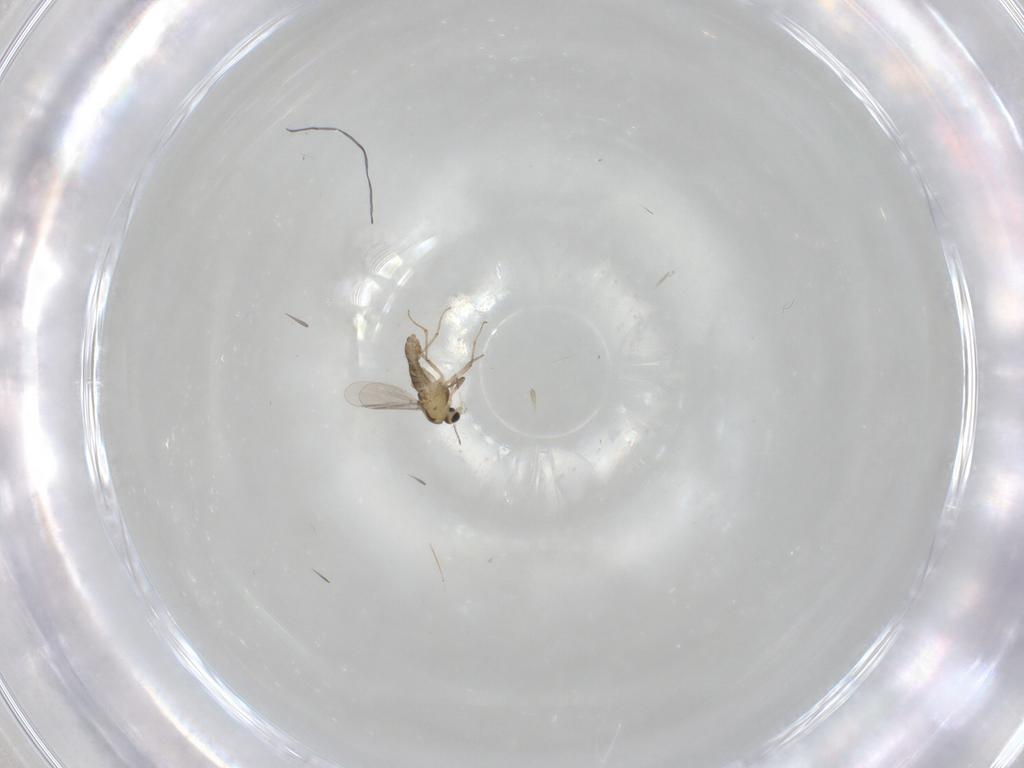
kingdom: Animalia
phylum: Arthropoda
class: Insecta
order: Diptera
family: Chironomidae
